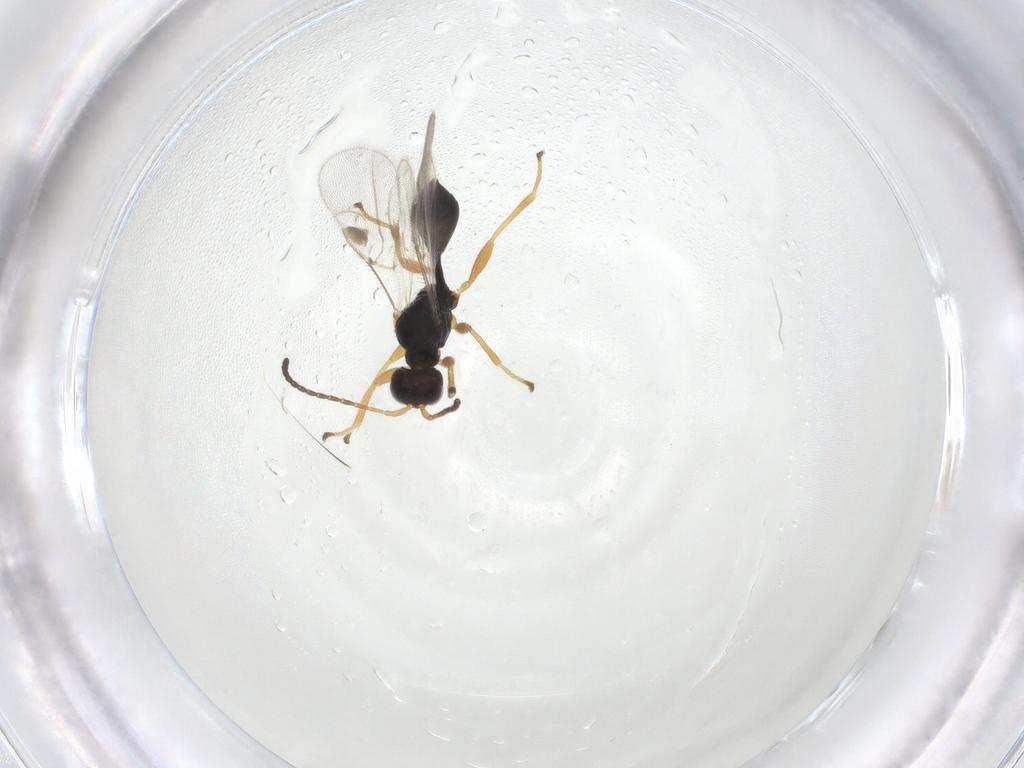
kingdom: Animalia
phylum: Arthropoda
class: Insecta
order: Hymenoptera
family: Braconidae
